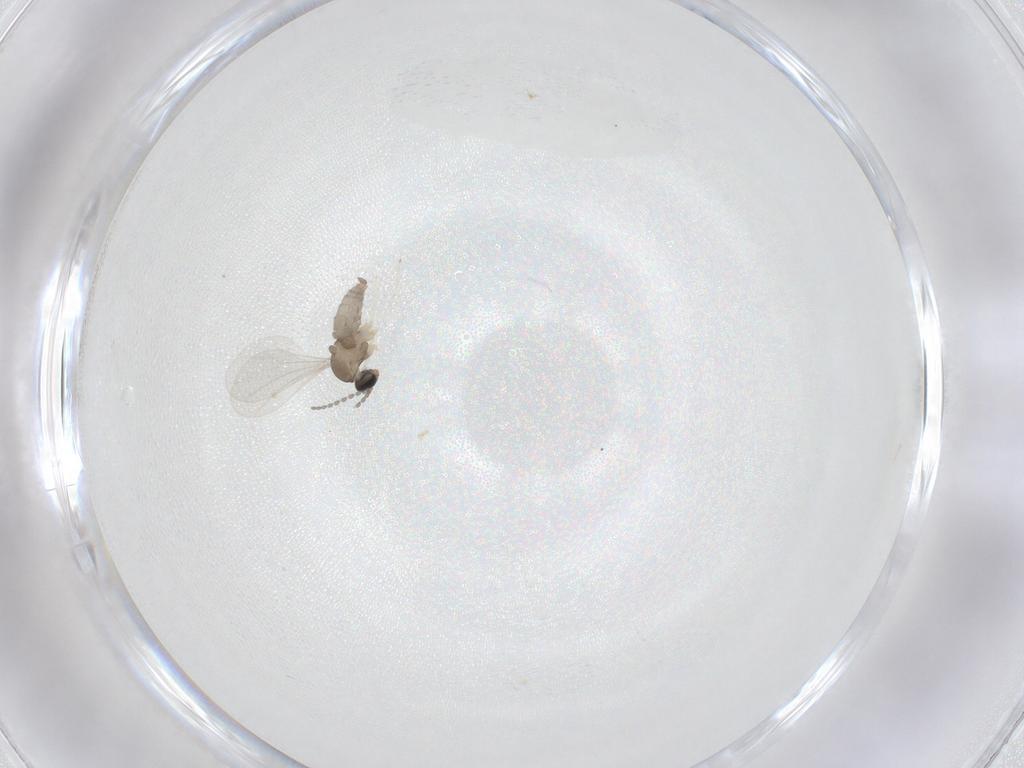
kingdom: Animalia
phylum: Arthropoda
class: Insecta
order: Diptera
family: Cecidomyiidae
